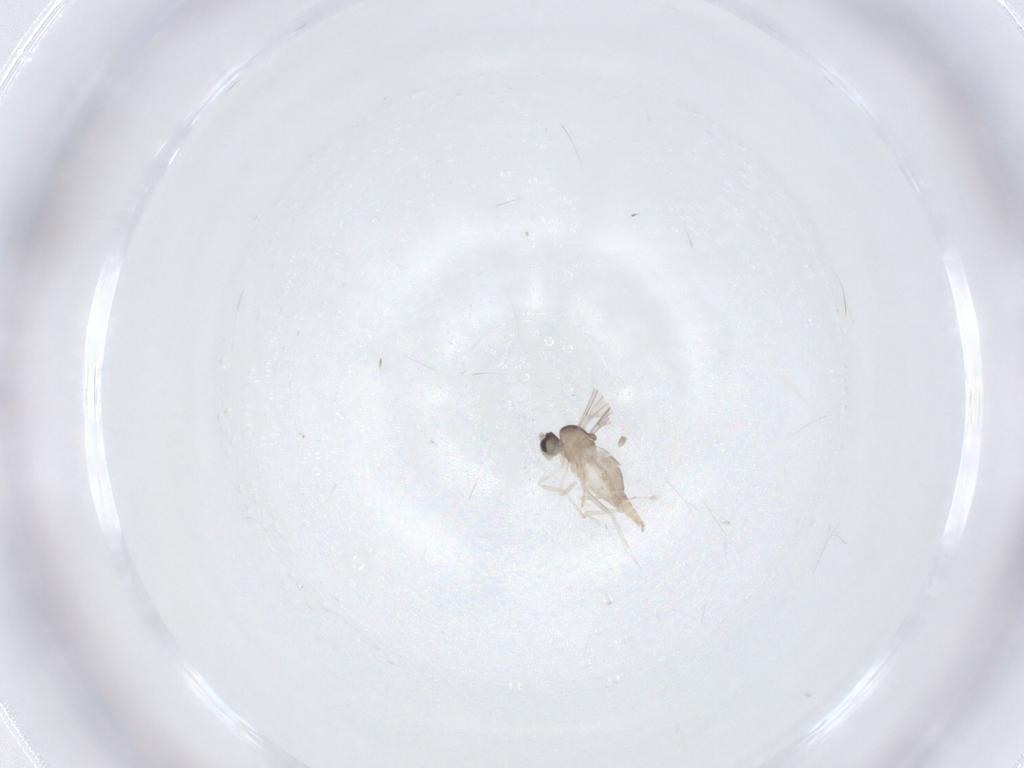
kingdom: Animalia
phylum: Arthropoda
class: Insecta
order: Diptera
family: Cecidomyiidae
